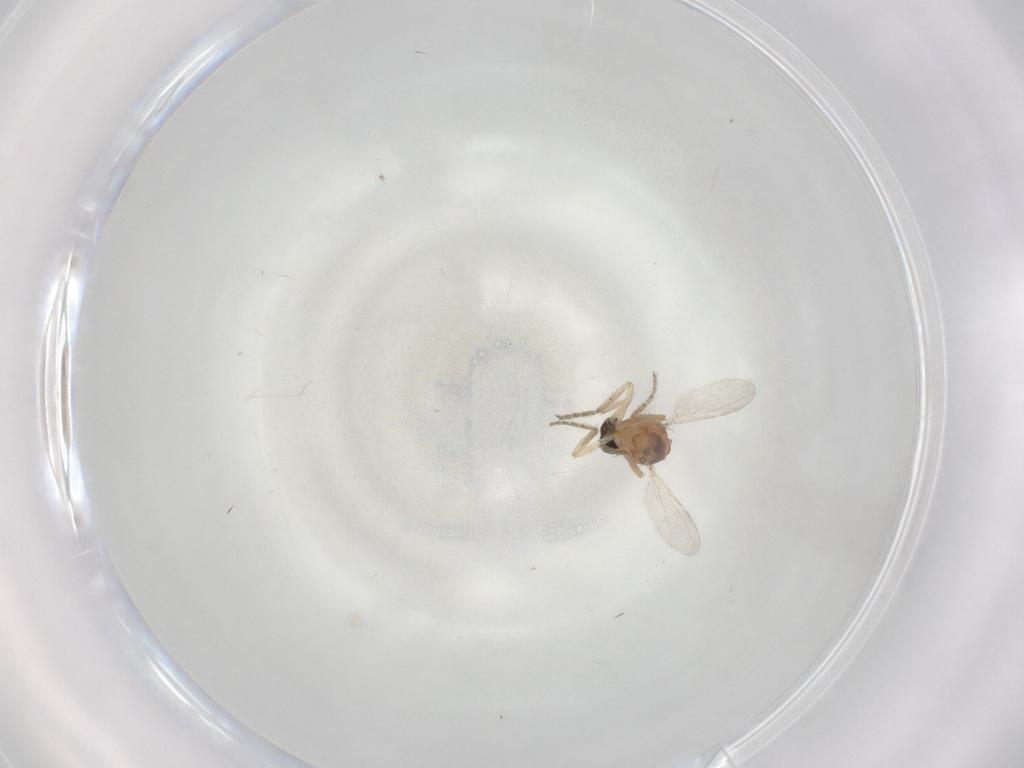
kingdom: Animalia
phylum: Arthropoda
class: Insecta
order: Diptera
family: Ceratopogonidae
